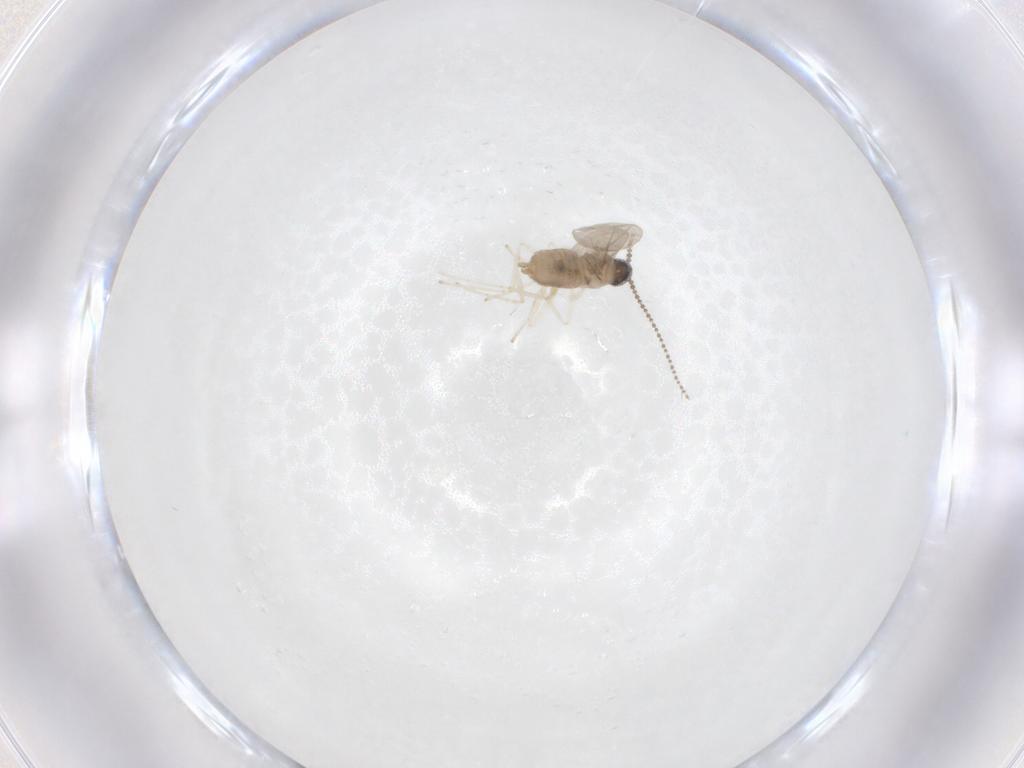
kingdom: Animalia
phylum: Arthropoda
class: Insecta
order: Diptera
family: Cecidomyiidae
